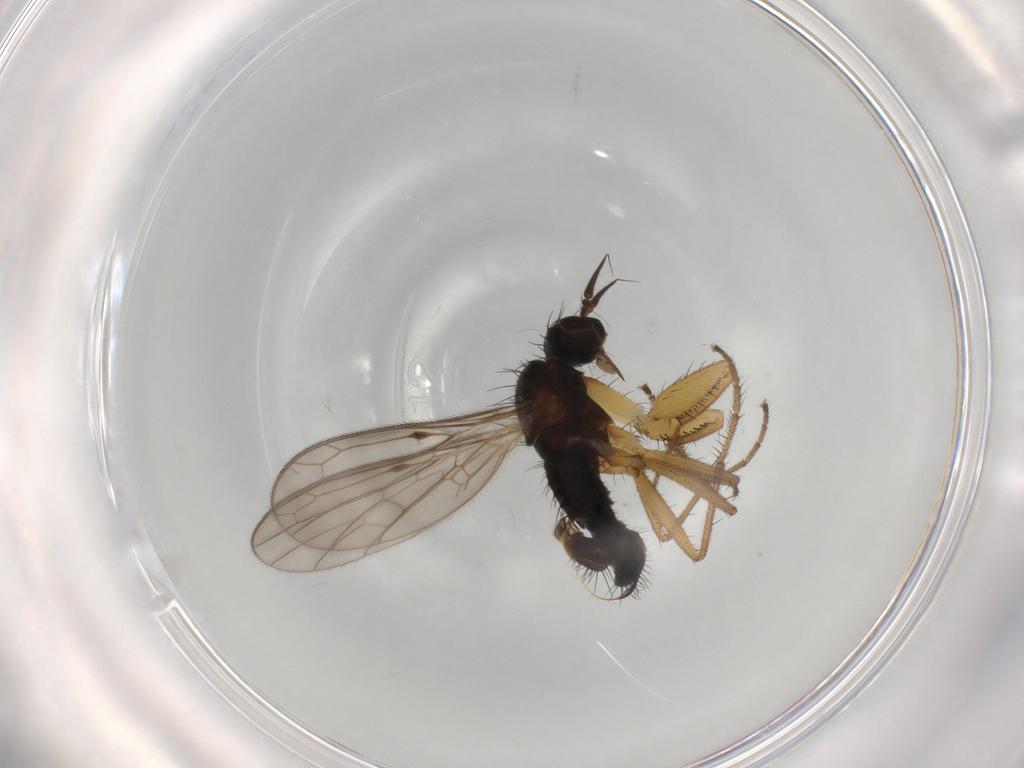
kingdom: Animalia
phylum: Arthropoda
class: Insecta
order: Diptera
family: Chironomidae
